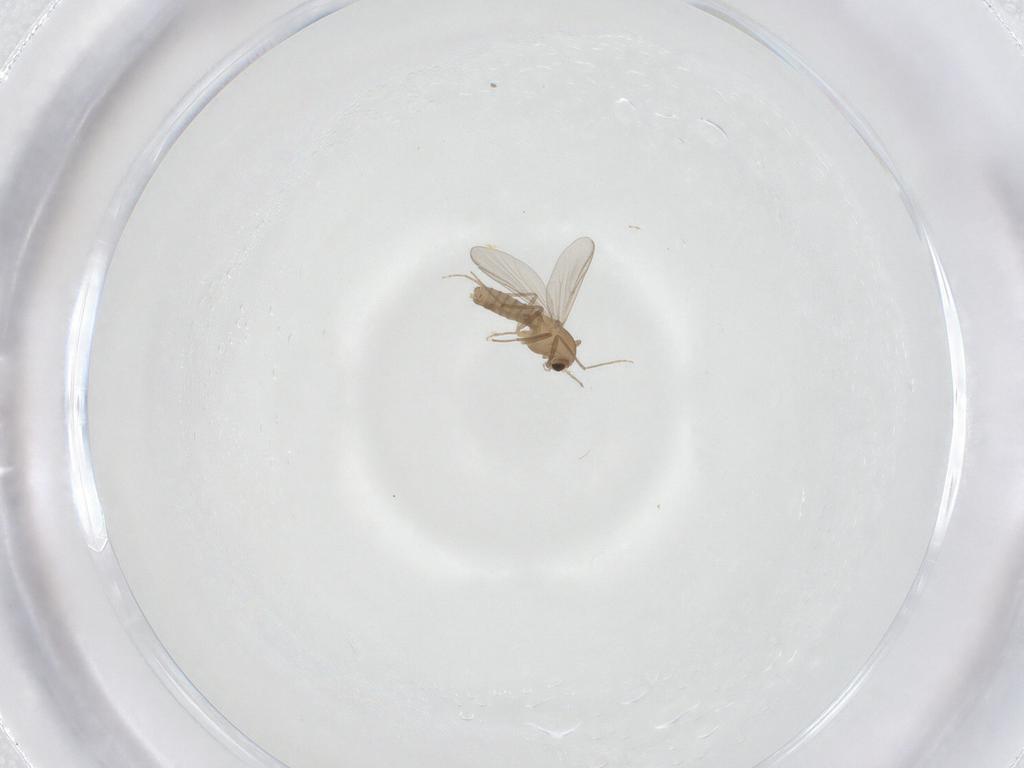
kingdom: Animalia
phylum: Arthropoda
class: Insecta
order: Diptera
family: Chironomidae
